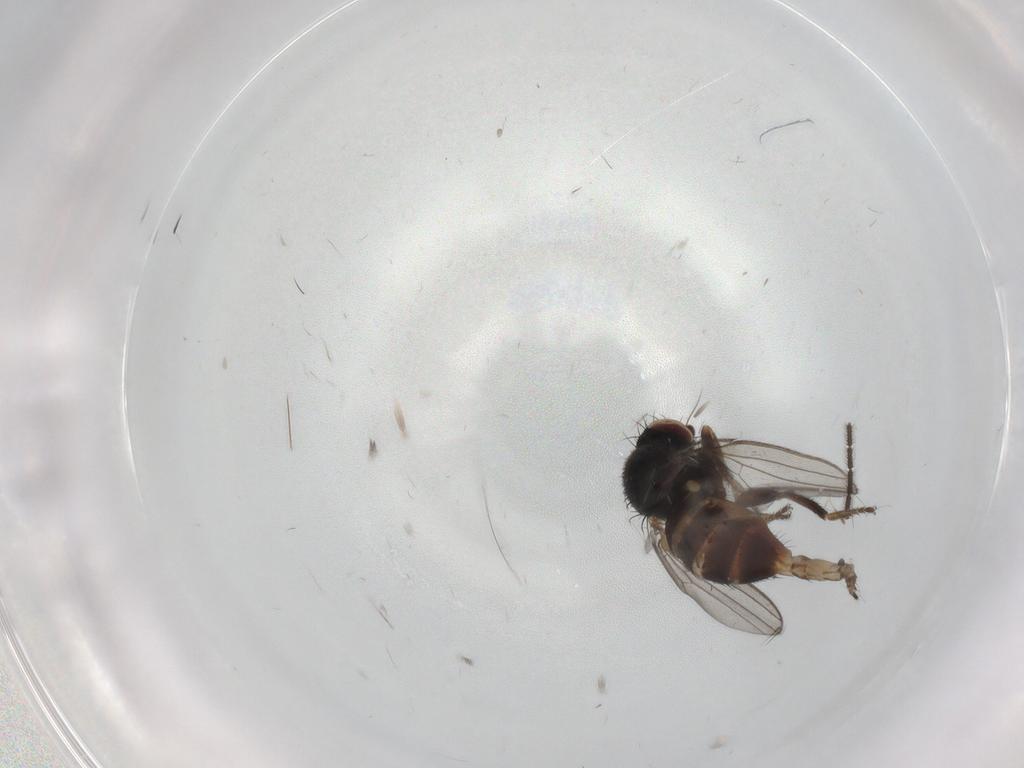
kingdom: Animalia
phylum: Arthropoda
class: Insecta
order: Diptera
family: Milichiidae
